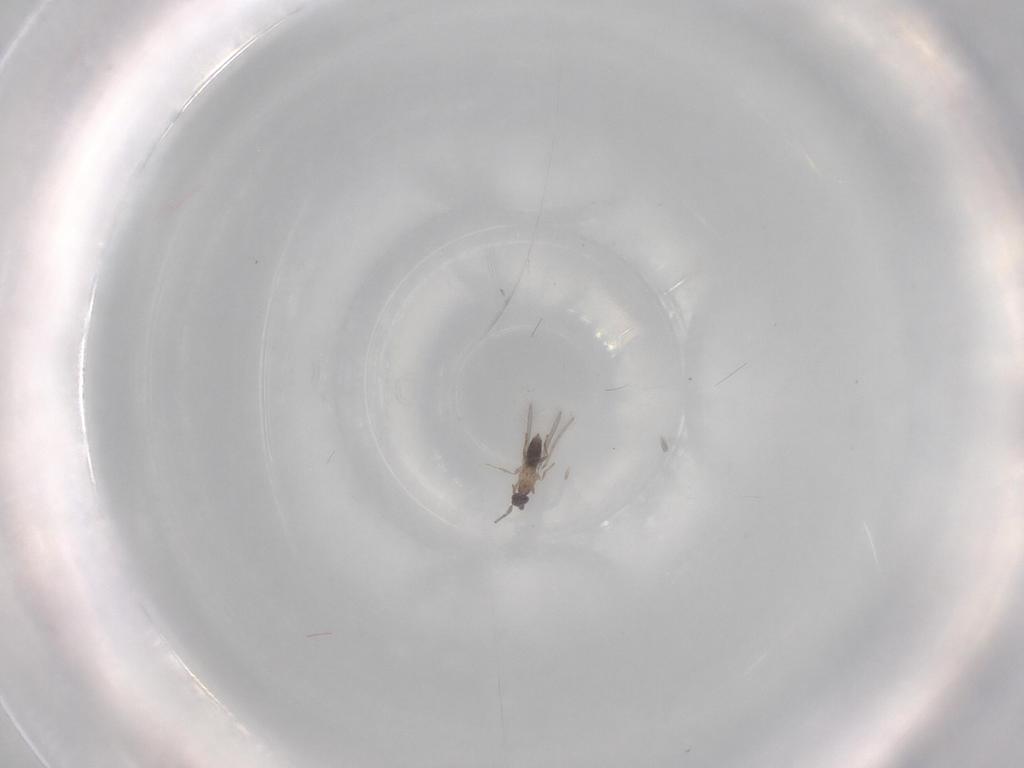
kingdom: Animalia
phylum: Arthropoda
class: Insecta
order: Hymenoptera
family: Mymaridae
